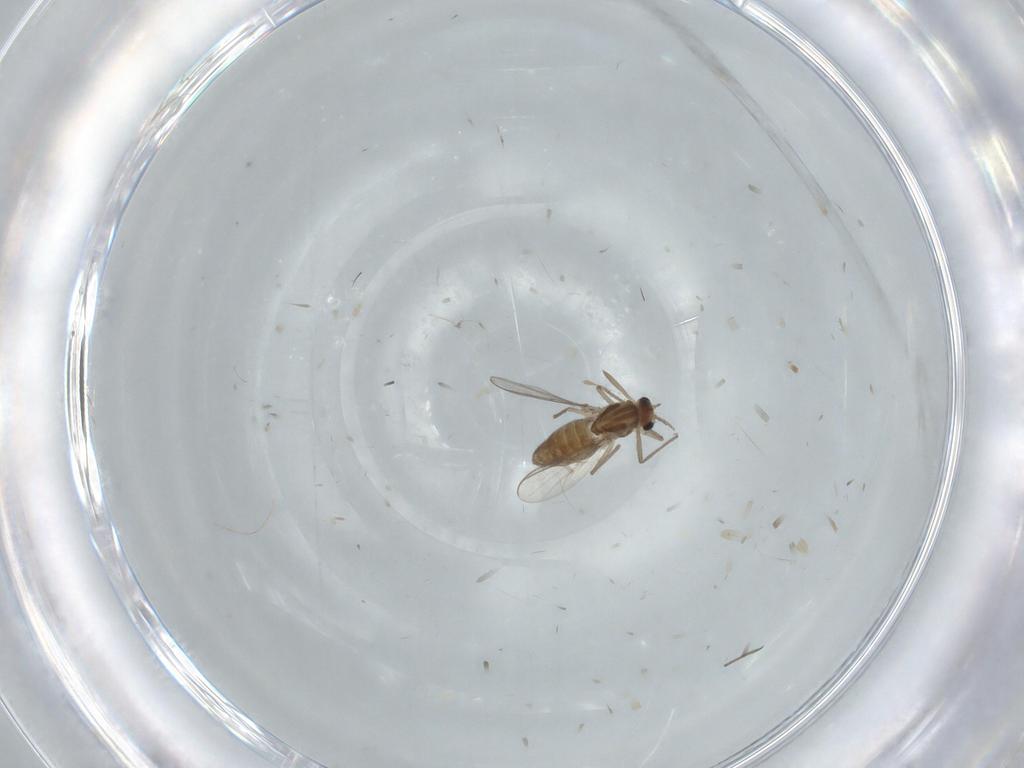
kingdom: Animalia
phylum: Arthropoda
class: Insecta
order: Diptera
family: Chironomidae
